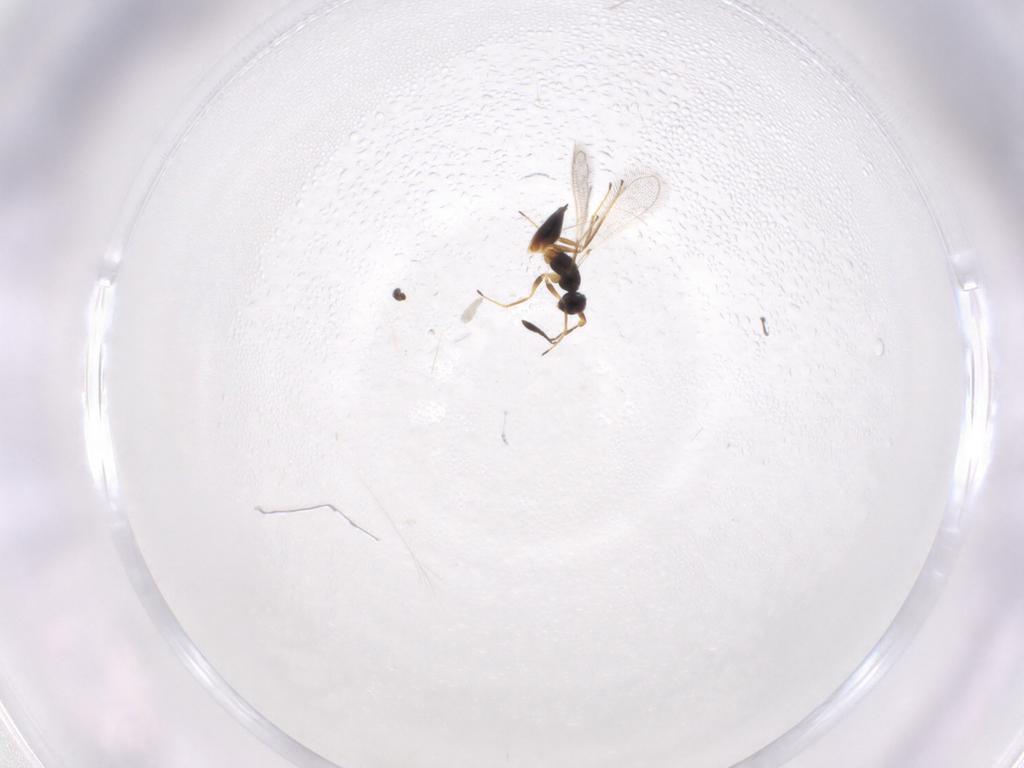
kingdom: Animalia
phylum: Arthropoda
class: Insecta
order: Hymenoptera
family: Mymaridae
